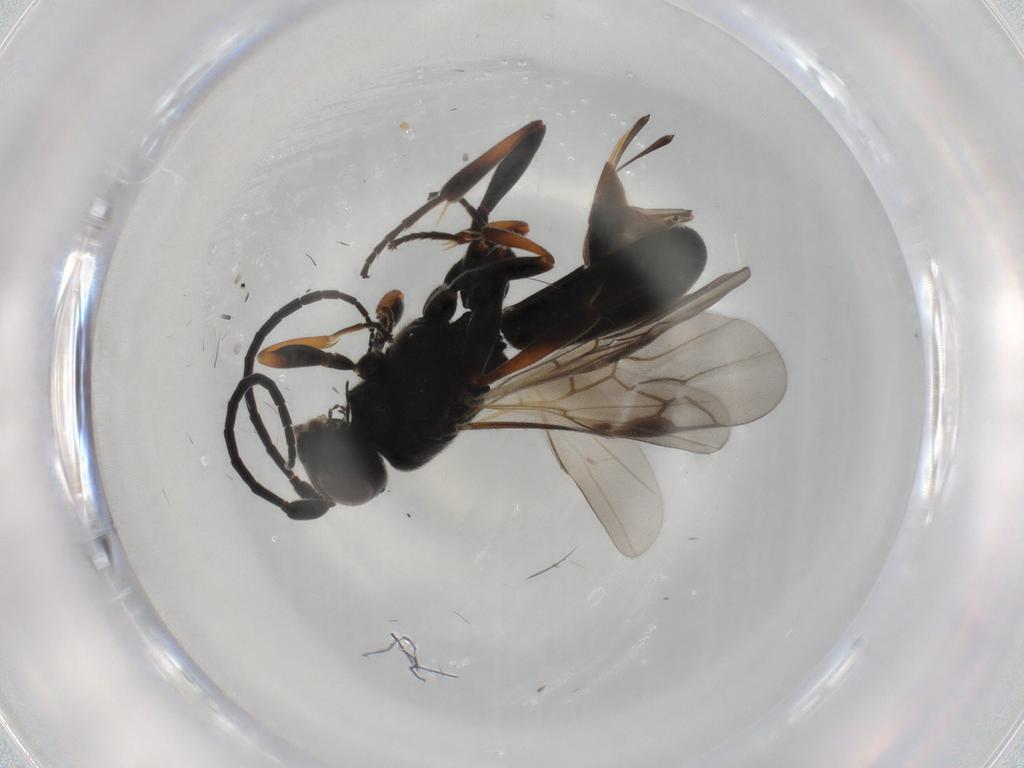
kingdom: Animalia
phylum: Arthropoda
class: Insecta
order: Hymenoptera
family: Braconidae
